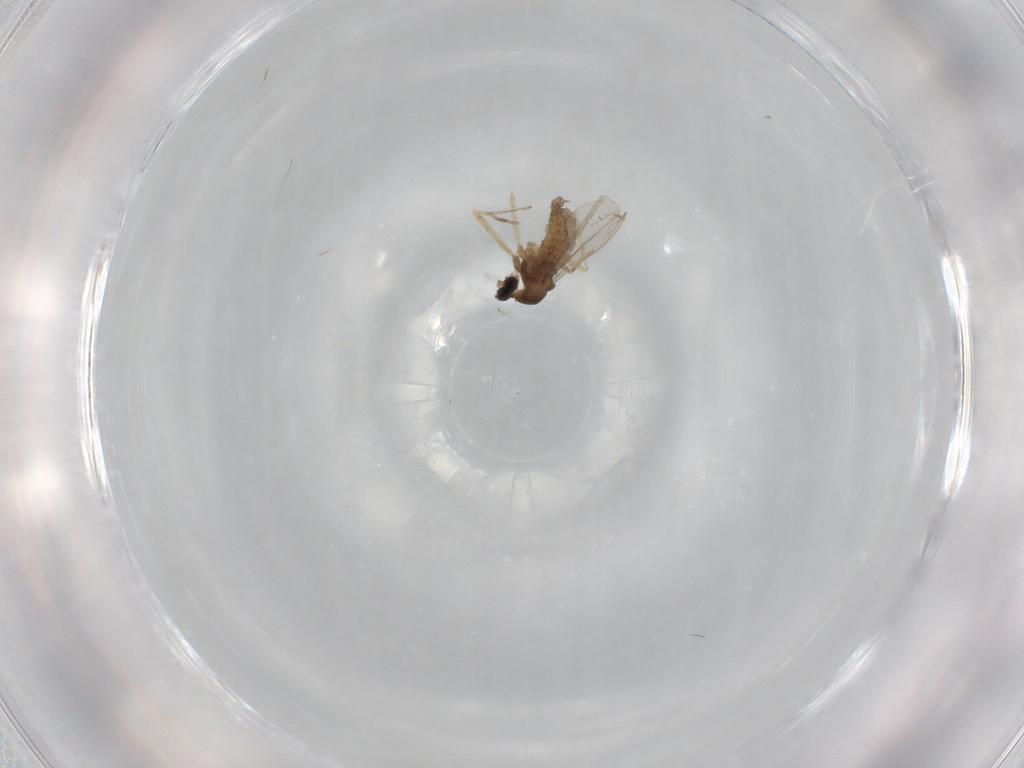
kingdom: Animalia
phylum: Arthropoda
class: Insecta
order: Diptera
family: Cecidomyiidae
